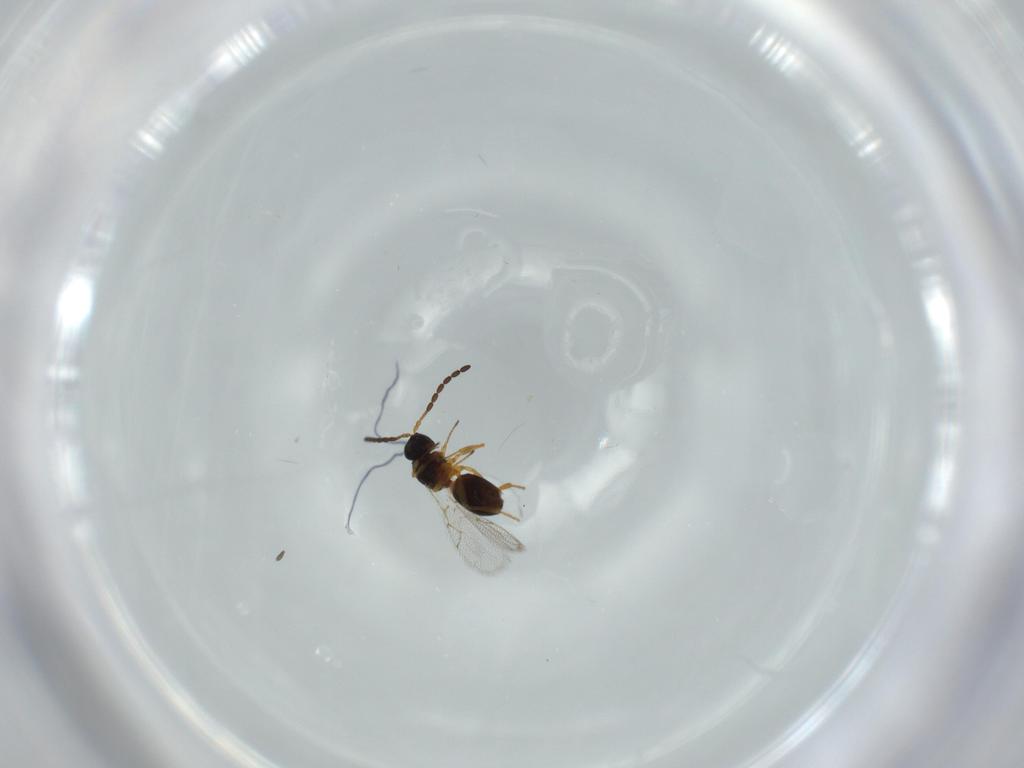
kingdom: Animalia
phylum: Arthropoda
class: Insecta
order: Hymenoptera
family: Figitidae
